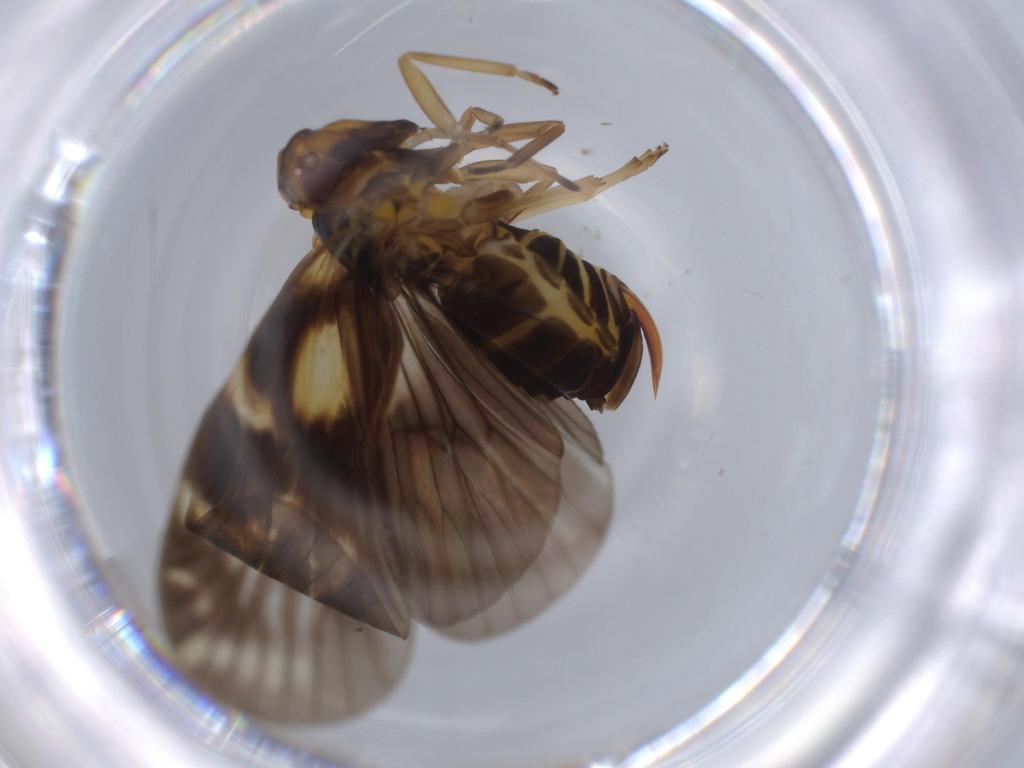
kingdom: Animalia
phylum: Arthropoda
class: Insecta
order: Hemiptera
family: Cixiidae
